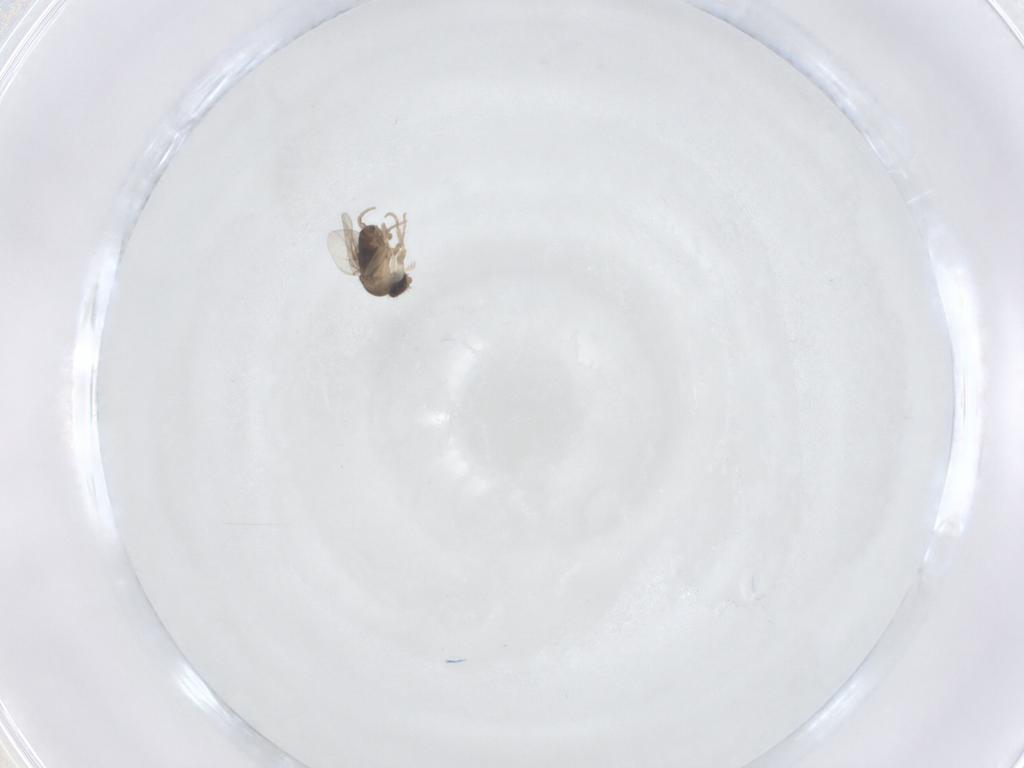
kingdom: Animalia
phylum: Arthropoda
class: Insecta
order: Diptera
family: Phoridae
